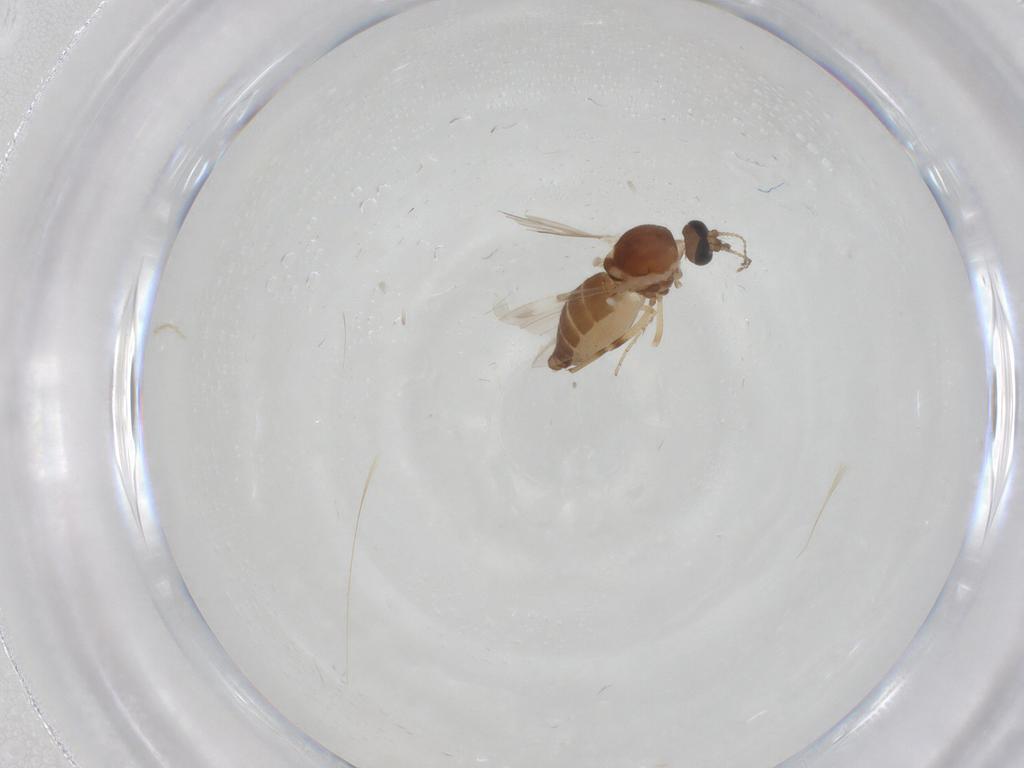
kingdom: Animalia
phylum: Arthropoda
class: Insecta
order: Diptera
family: Ceratopogonidae
